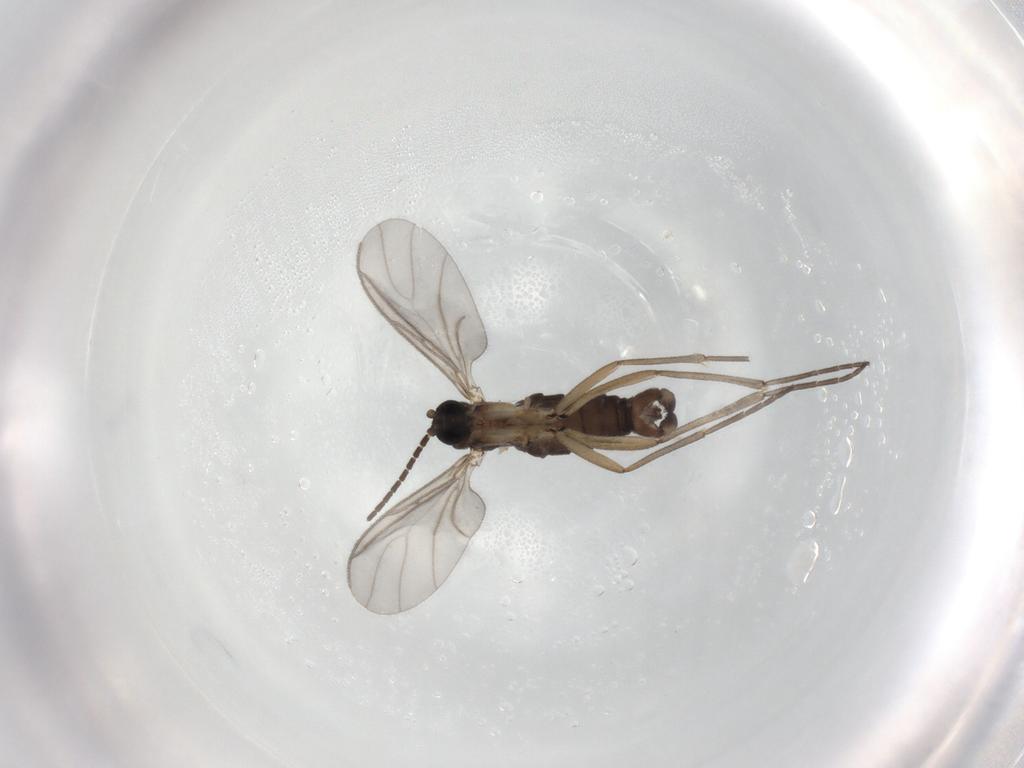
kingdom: Animalia
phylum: Arthropoda
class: Insecta
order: Diptera
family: Sciaridae
